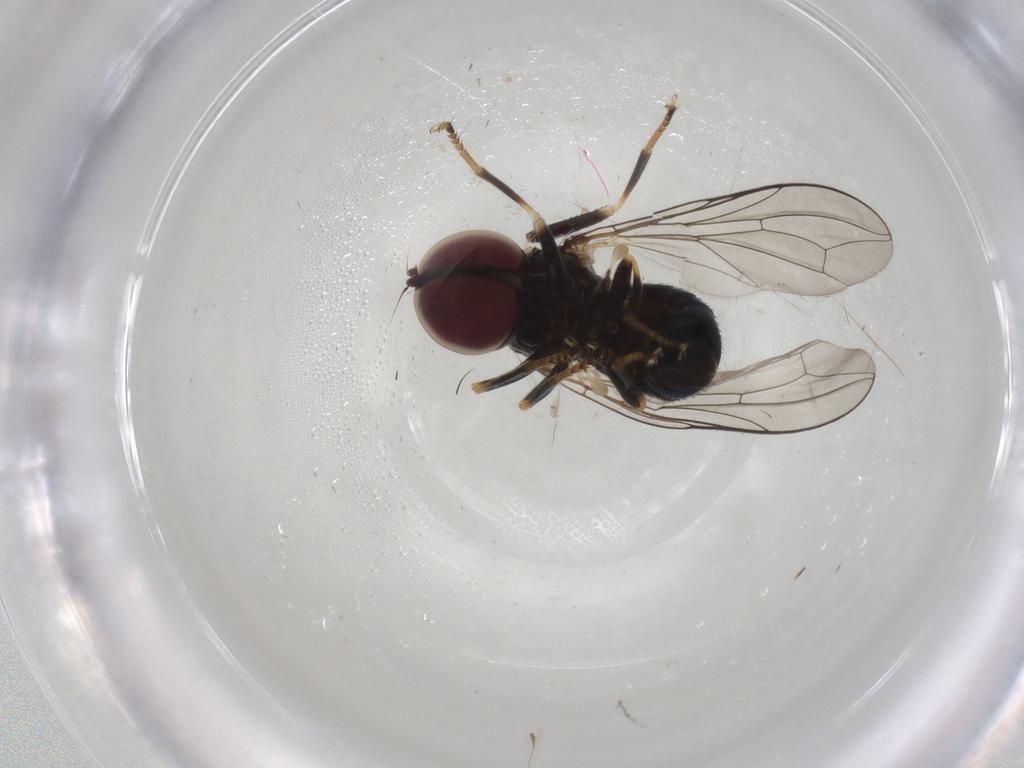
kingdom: Animalia
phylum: Arthropoda
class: Insecta
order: Diptera
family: Pipunculidae
